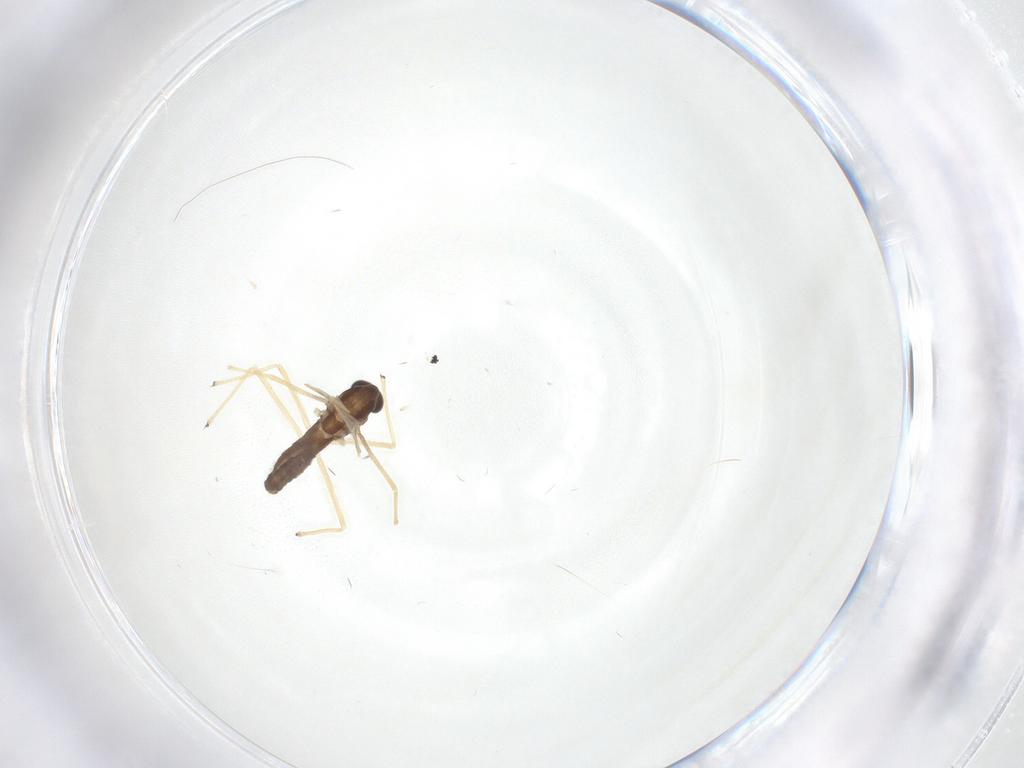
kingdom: Animalia
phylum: Arthropoda
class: Insecta
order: Diptera
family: Chironomidae
